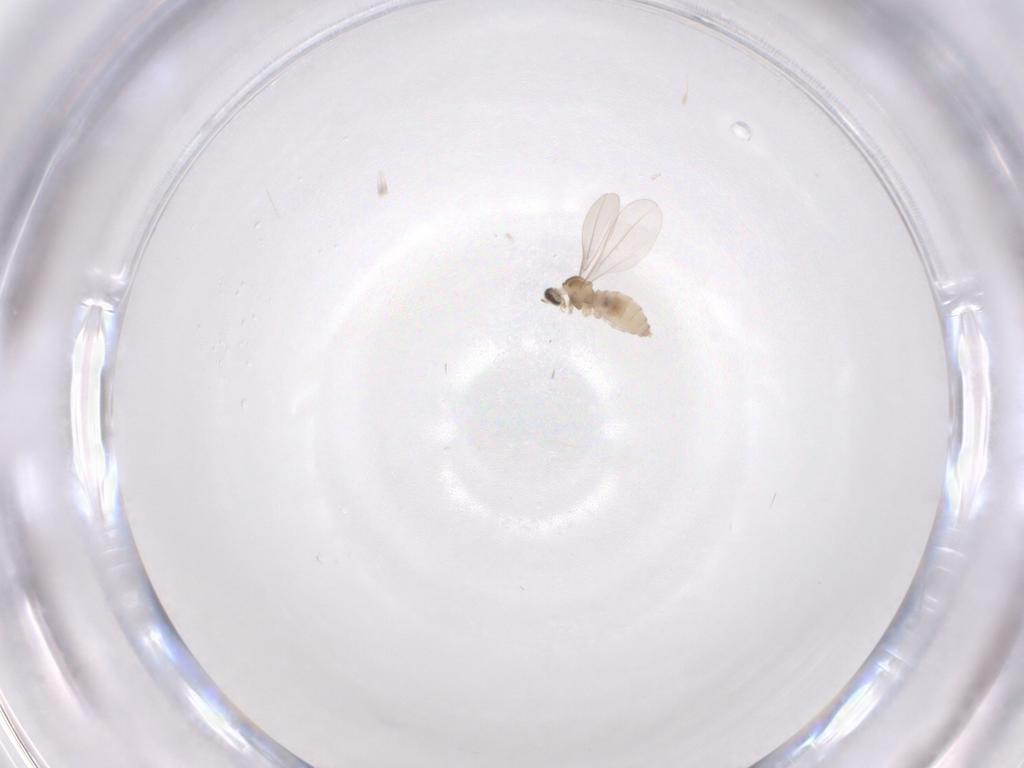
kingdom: Animalia
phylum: Arthropoda
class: Insecta
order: Diptera
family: Cecidomyiidae
